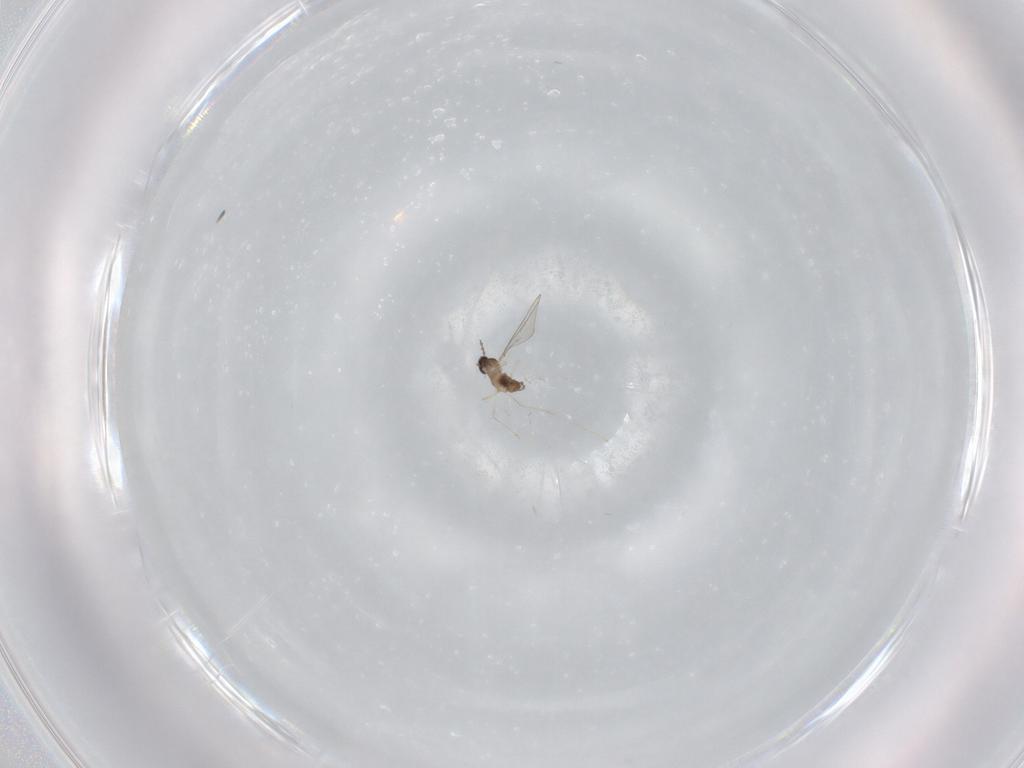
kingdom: Animalia
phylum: Arthropoda
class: Insecta
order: Diptera
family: Cecidomyiidae
